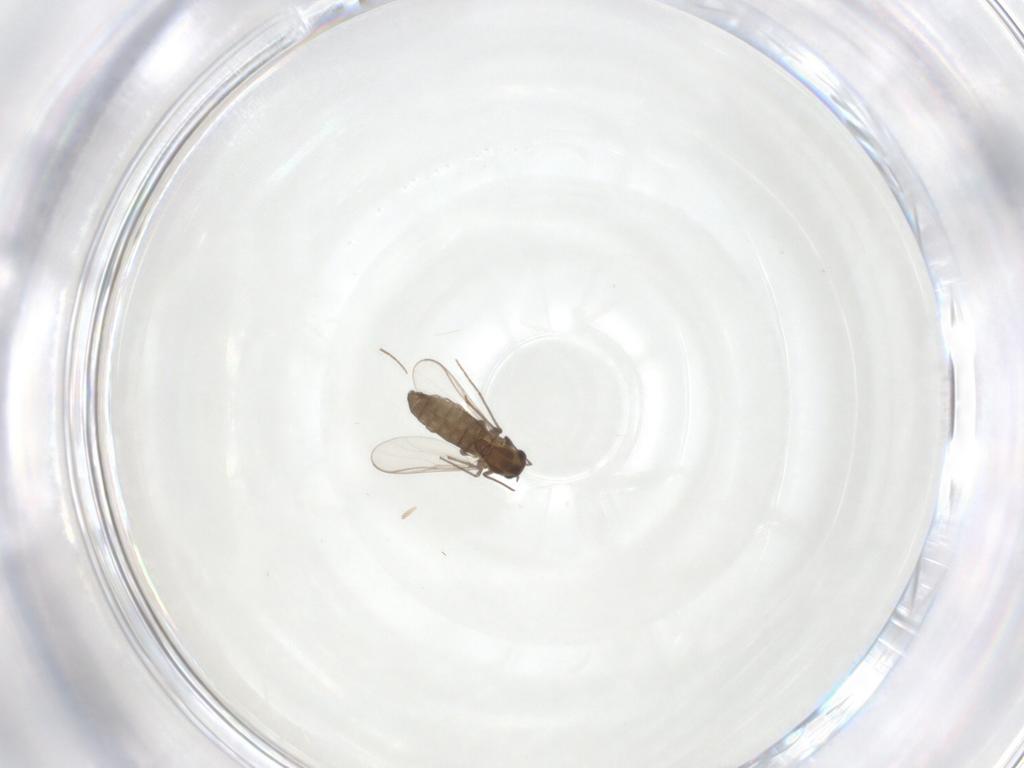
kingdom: Animalia
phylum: Arthropoda
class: Insecta
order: Diptera
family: Chironomidae
